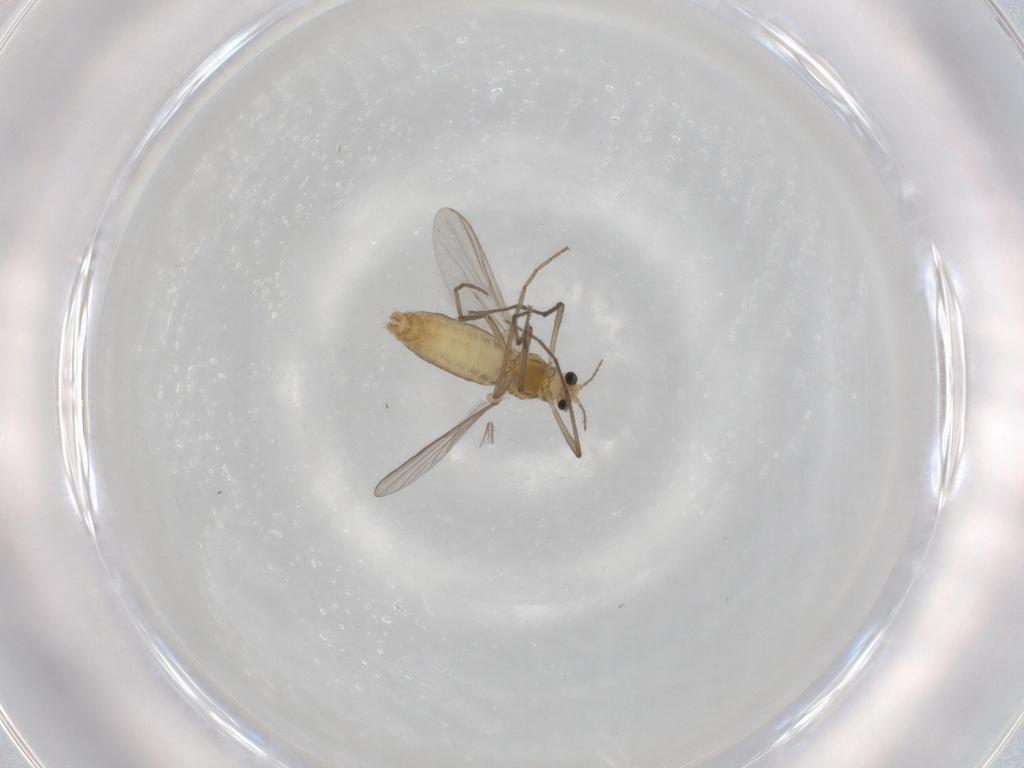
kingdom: Animalia
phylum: Arthropoda
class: Insecta
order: Diptera
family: Chironomidae
